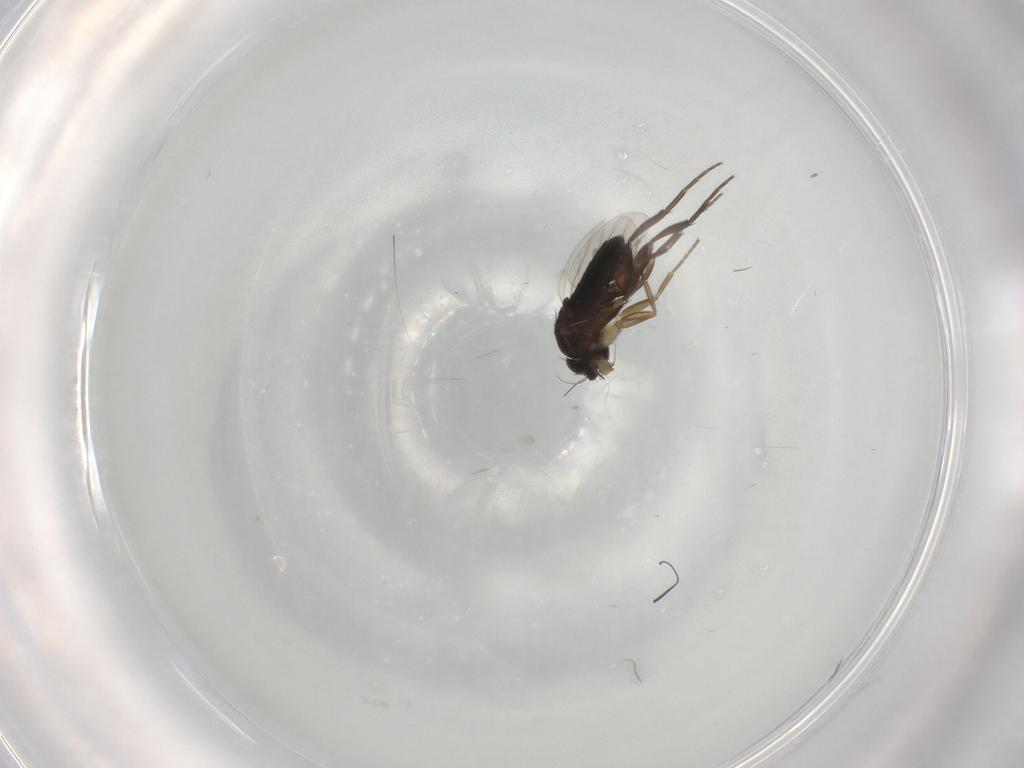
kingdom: Animalia
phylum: Arthropoda
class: Insecta
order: Diptera
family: Phoridae
